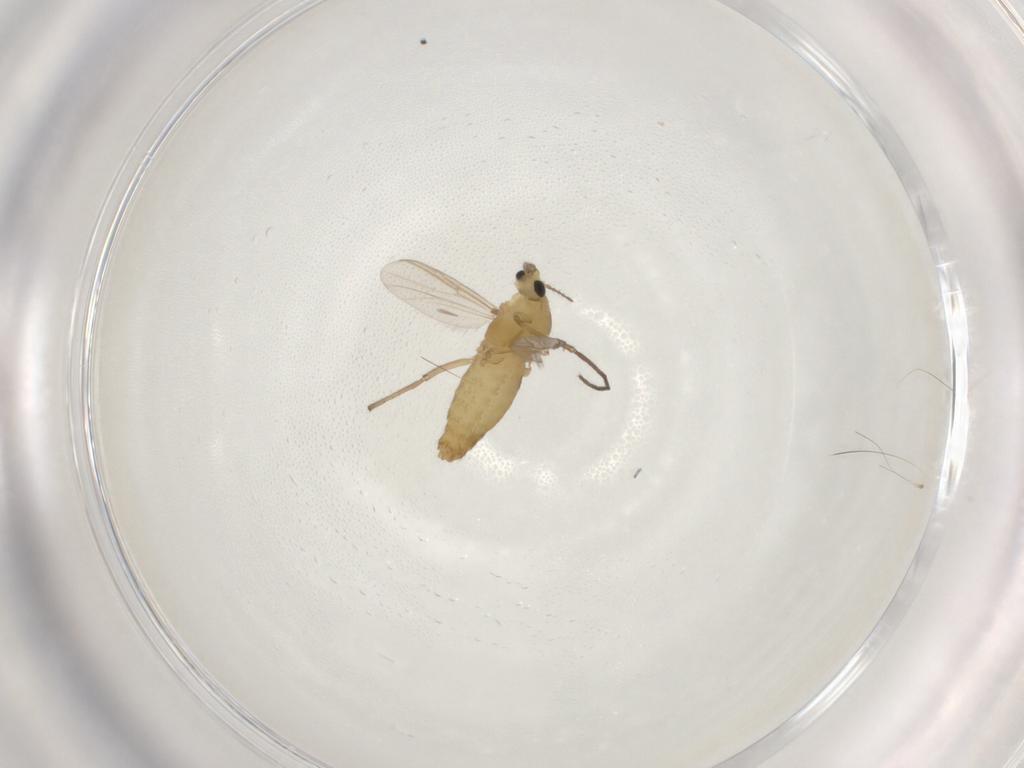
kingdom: Animalia
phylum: Arthropoda
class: Insecta
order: Diptera
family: Chironomidae
